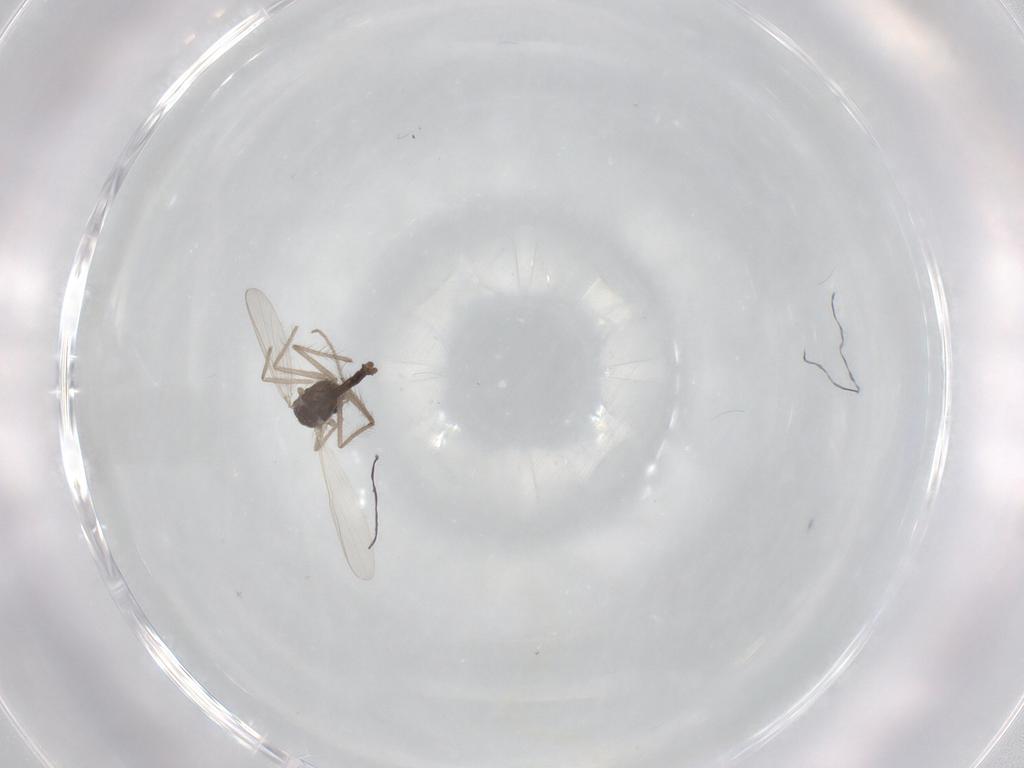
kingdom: Animalia
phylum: Arthropoda
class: Insecta
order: Diptera
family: Chironomidae
